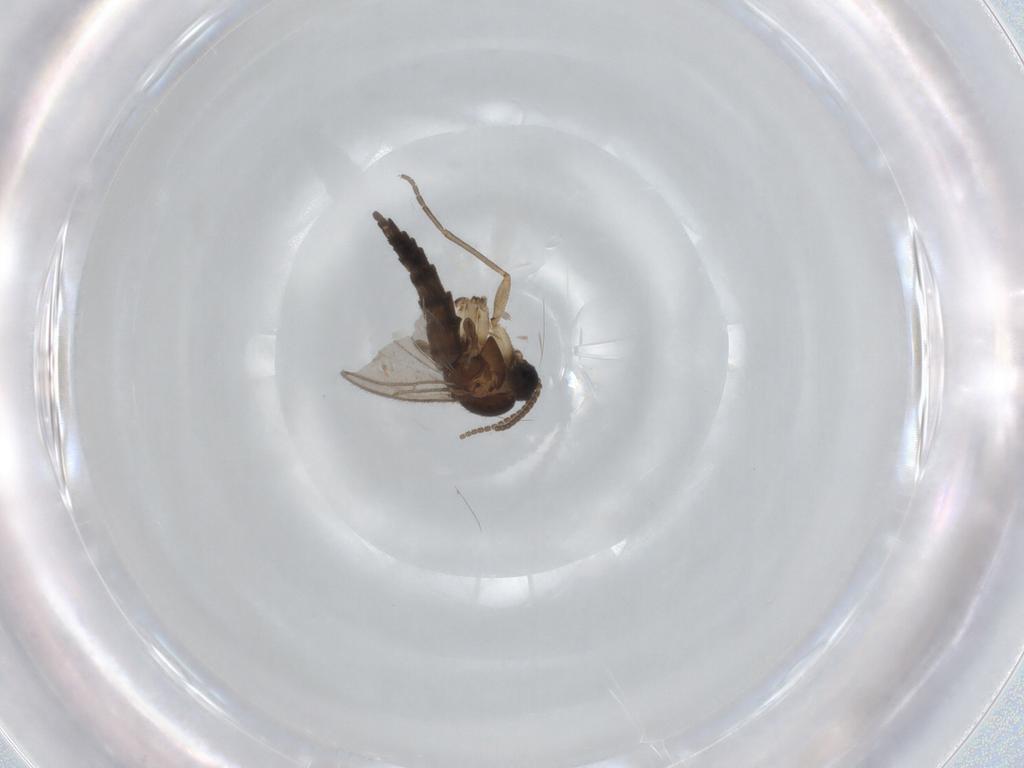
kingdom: Animalia
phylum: Arthropoda
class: Insecta
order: Diptera
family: Sciaridae
